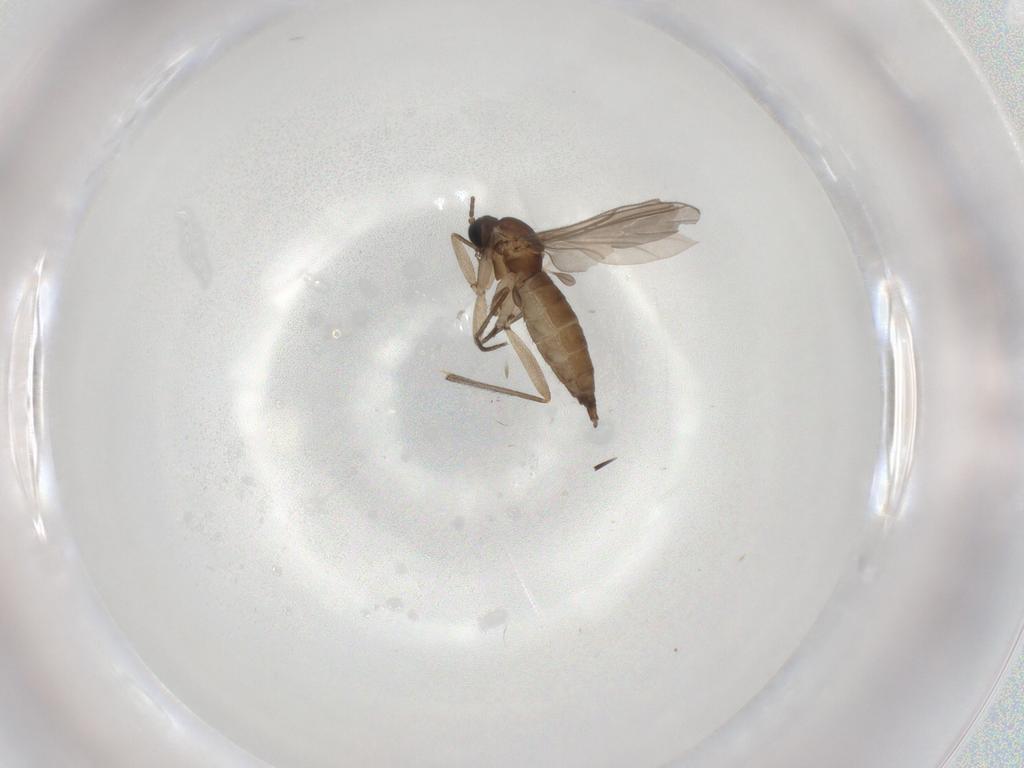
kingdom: Animalia
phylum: Arthropoda
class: Insecta
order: Diptera
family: Sciaridae
